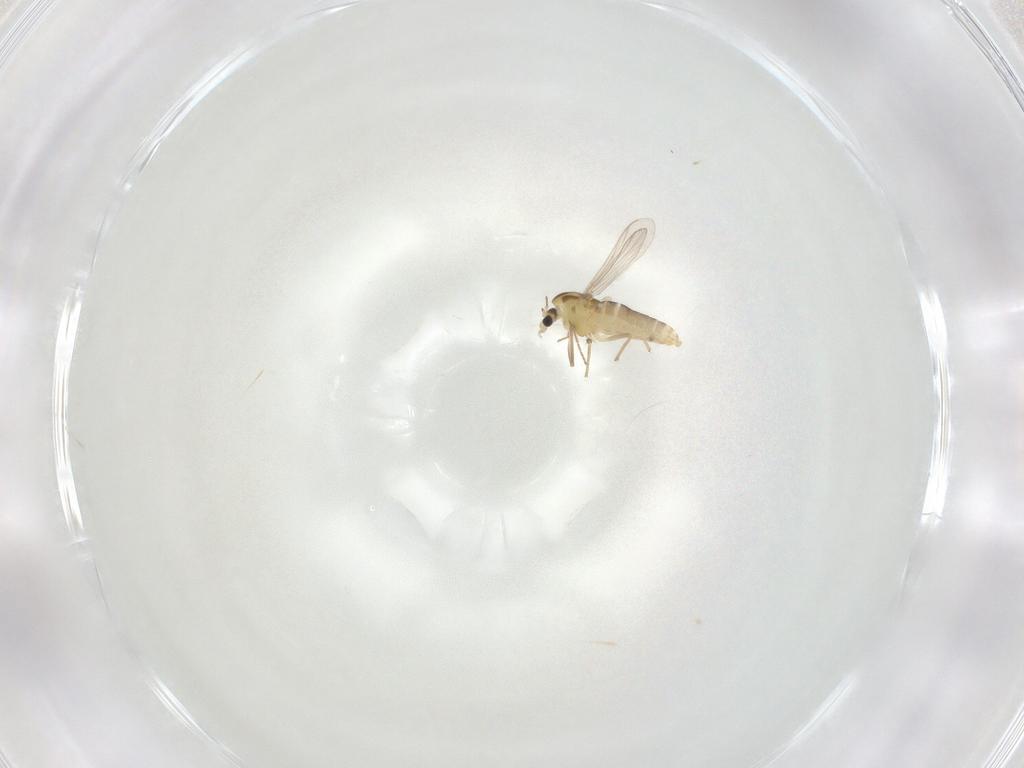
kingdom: Animalia
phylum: Arthropoda
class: Insecta
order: Diptera
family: Chironomidae
